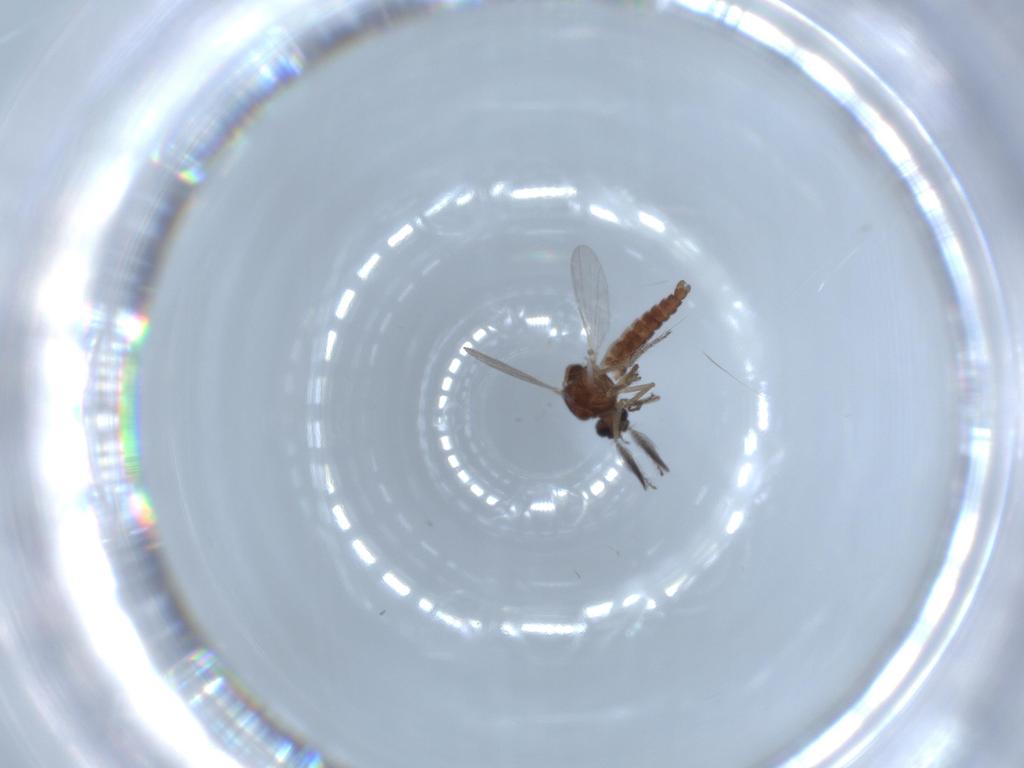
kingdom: Animalia
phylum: Arthropoda
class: Insecta
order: Diptera
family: Ceratopogonidae
